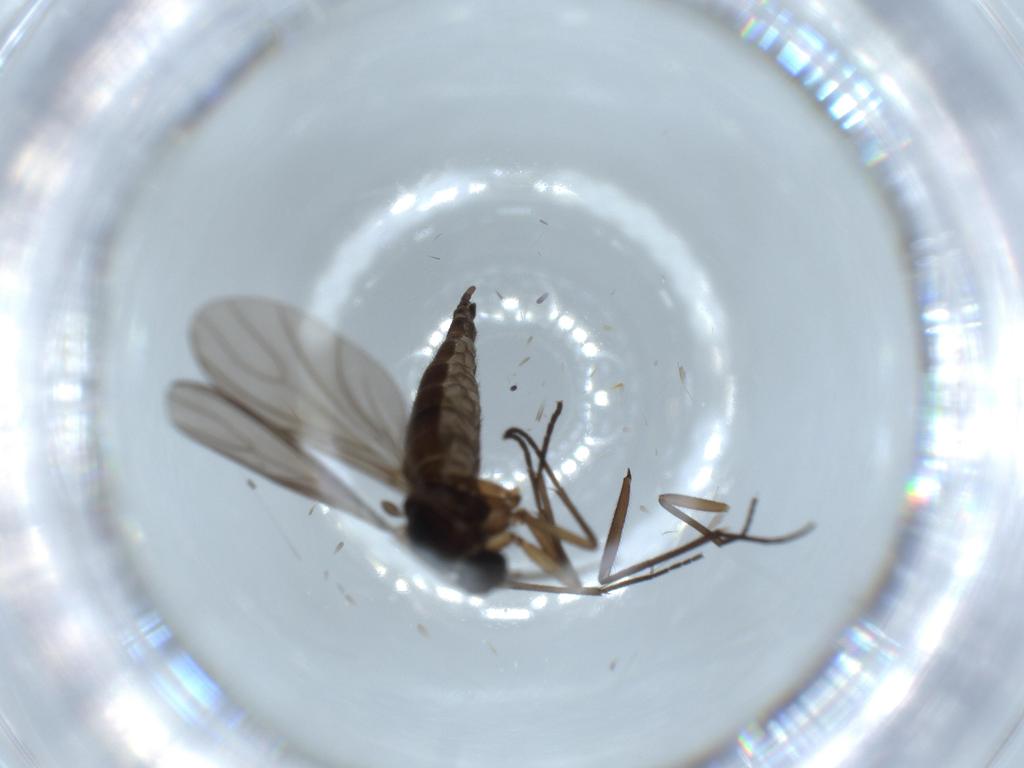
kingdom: Animalia
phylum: Arthropoda
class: Insecta
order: Diptera
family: Sciaridae
